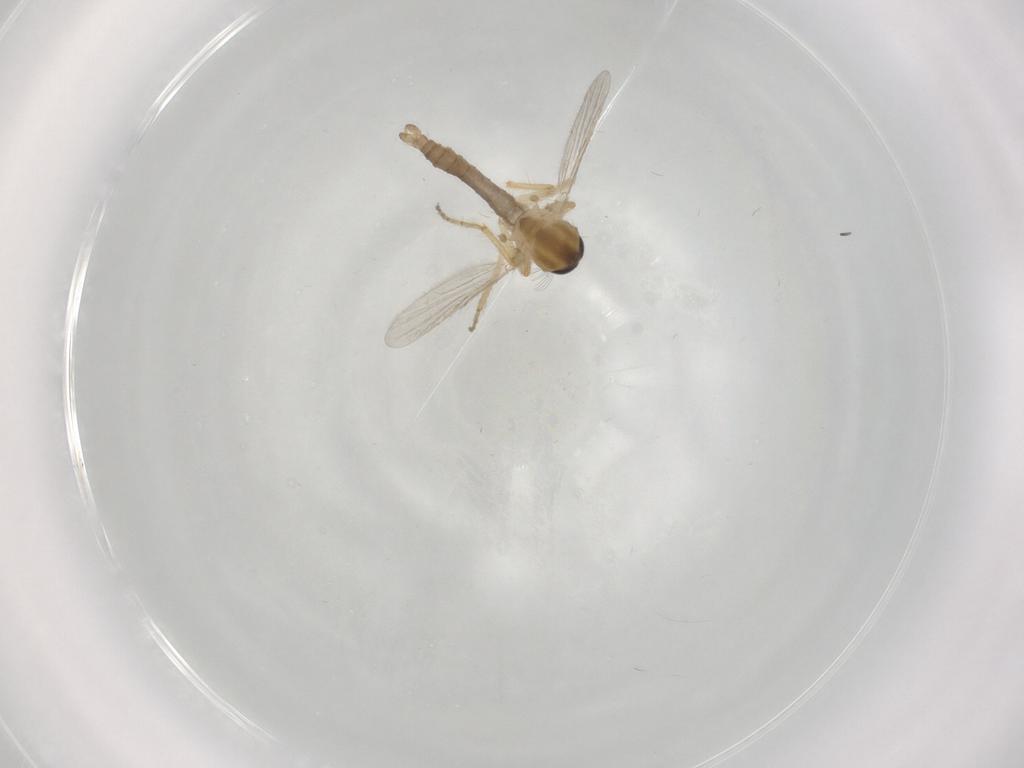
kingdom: Animalia
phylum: Arthropoda
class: Insecta
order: Diptera
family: Ceratopogonidae
